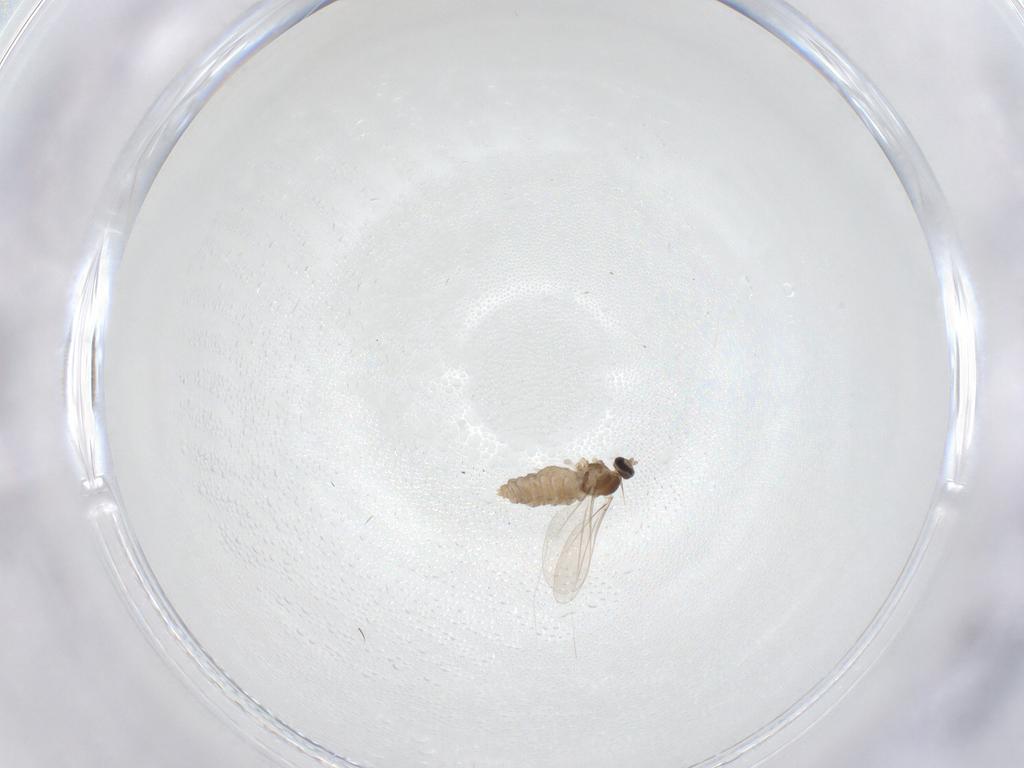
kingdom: Animalia
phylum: Arthropoda
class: Insecta
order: Diptera
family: Cecidomyiidae
